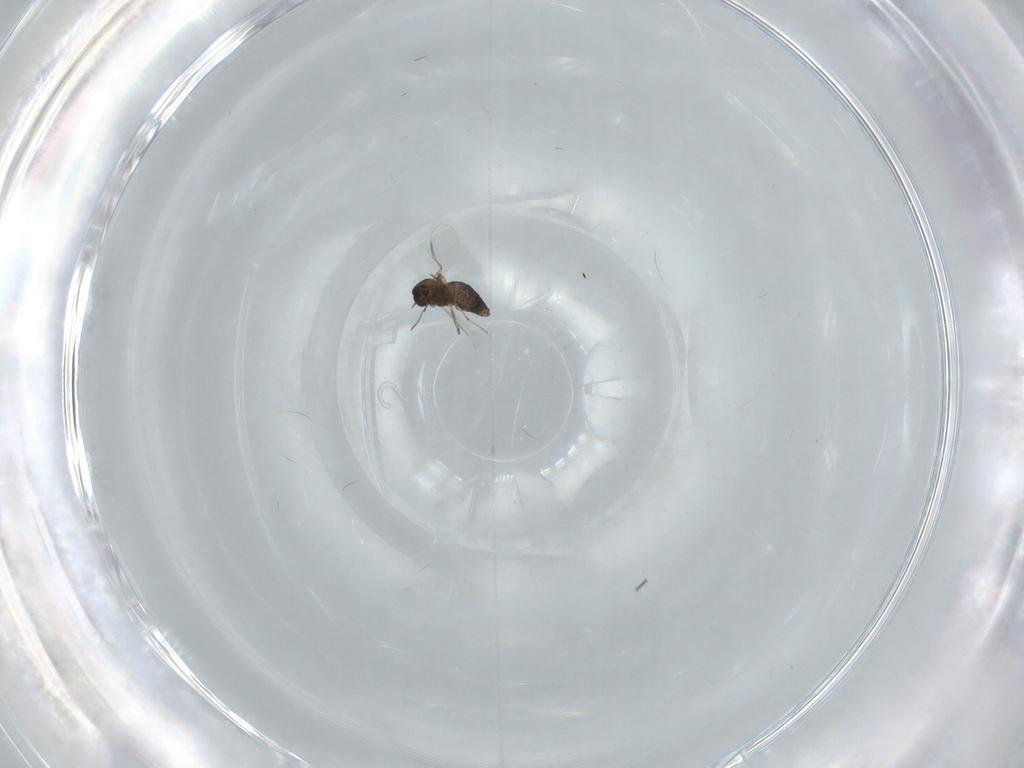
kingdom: Animalia
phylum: Arthropoda
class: Insecta
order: Diptera
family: Chironomidae
